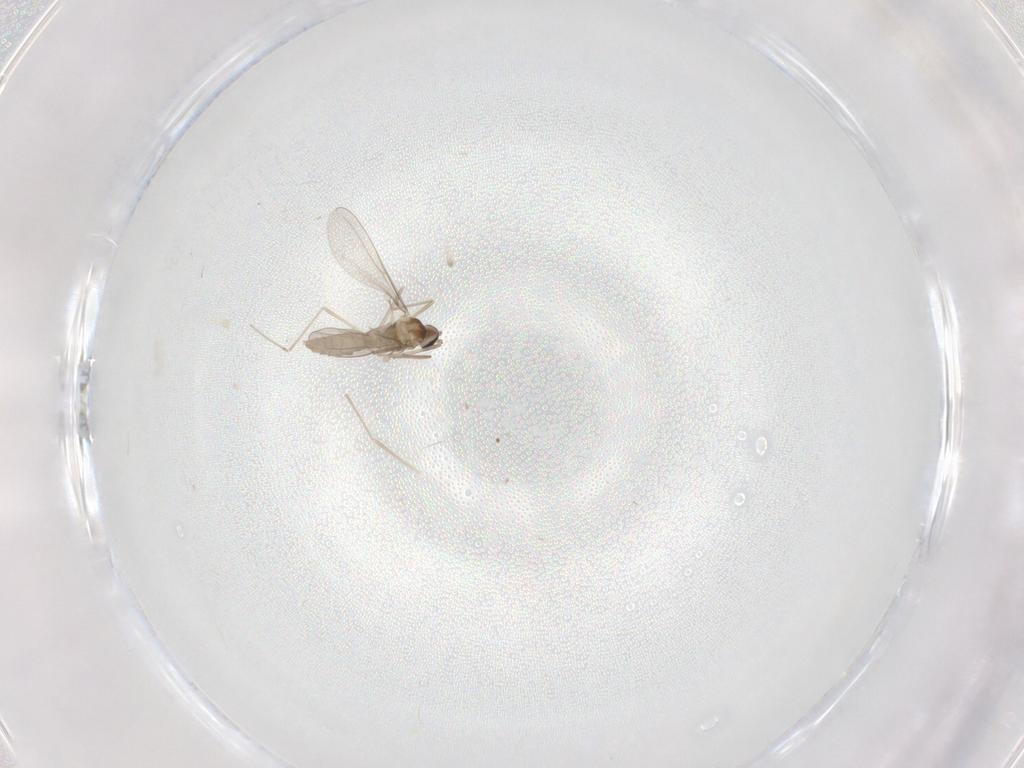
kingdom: Animalia
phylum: Arthropoda
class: Insecta
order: Diptera
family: Cecidomyiidae
